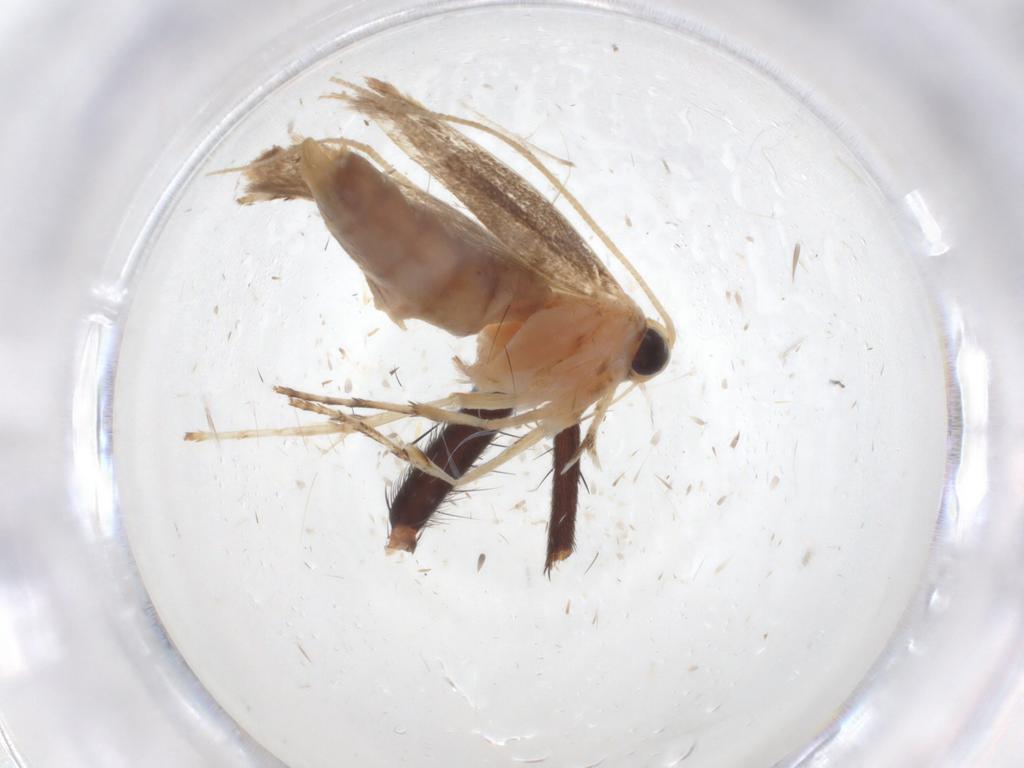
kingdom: Animalia
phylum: Arthropoda
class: Insecta
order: Lepidoptera
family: Gracillariidae
